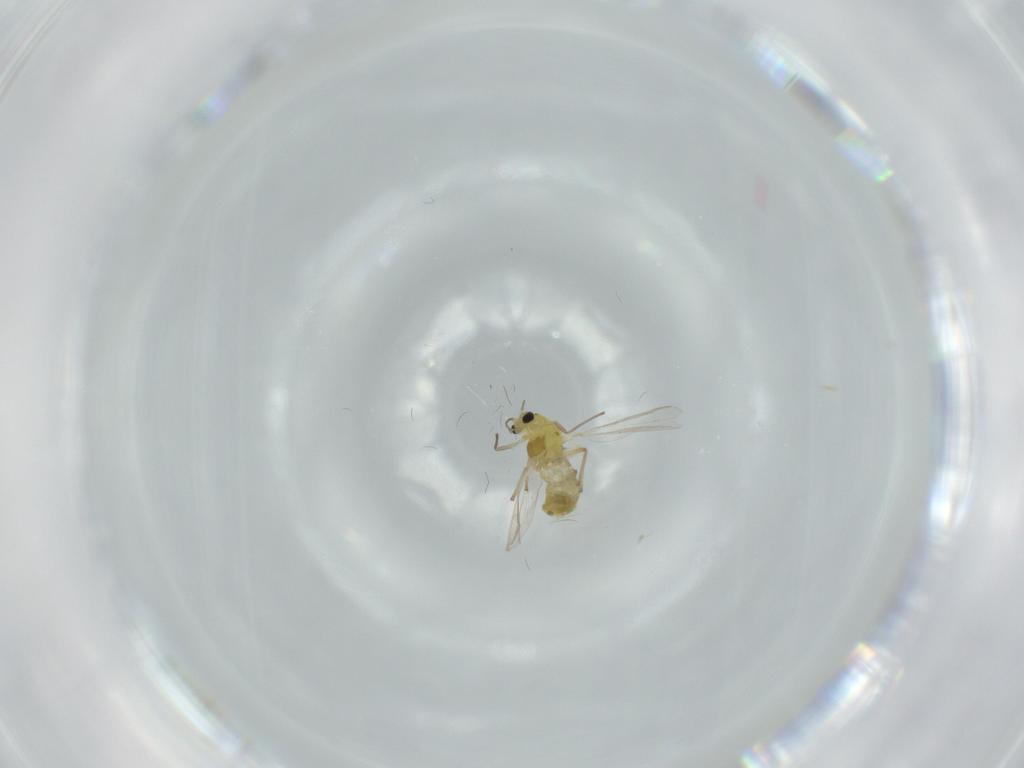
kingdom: Animalia
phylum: Arthropoda
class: Insecta
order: Diptera
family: Chironomidae
